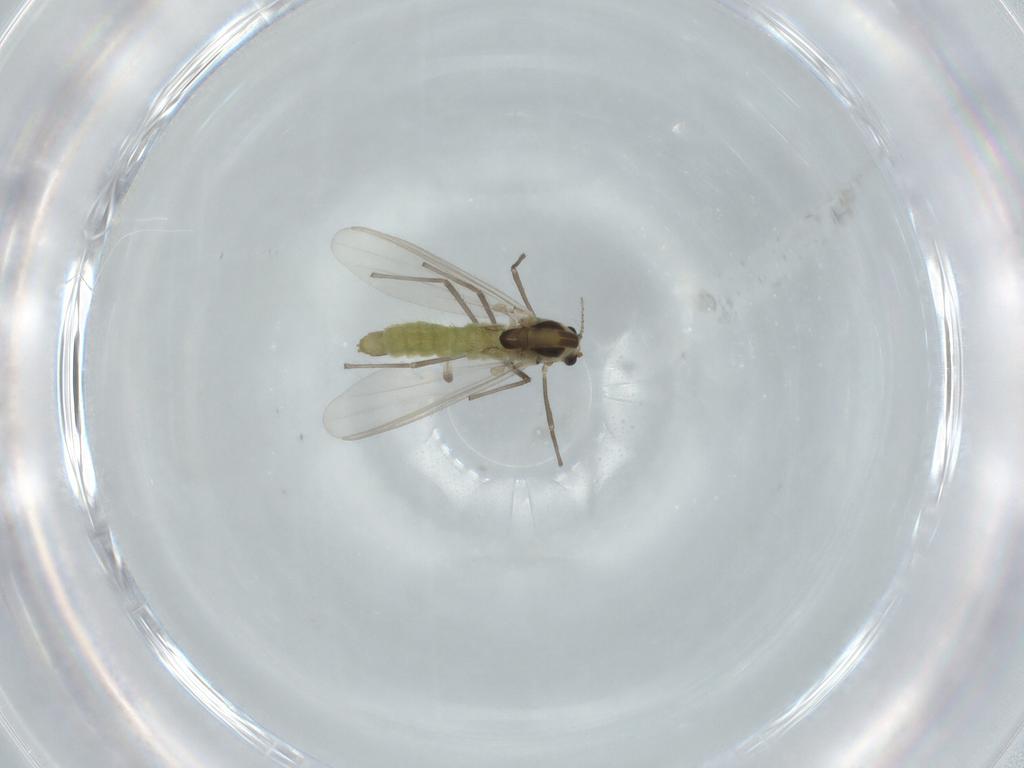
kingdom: Animalia
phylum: Arthropoda
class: Insecta
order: Diptera
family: Chironomidae
